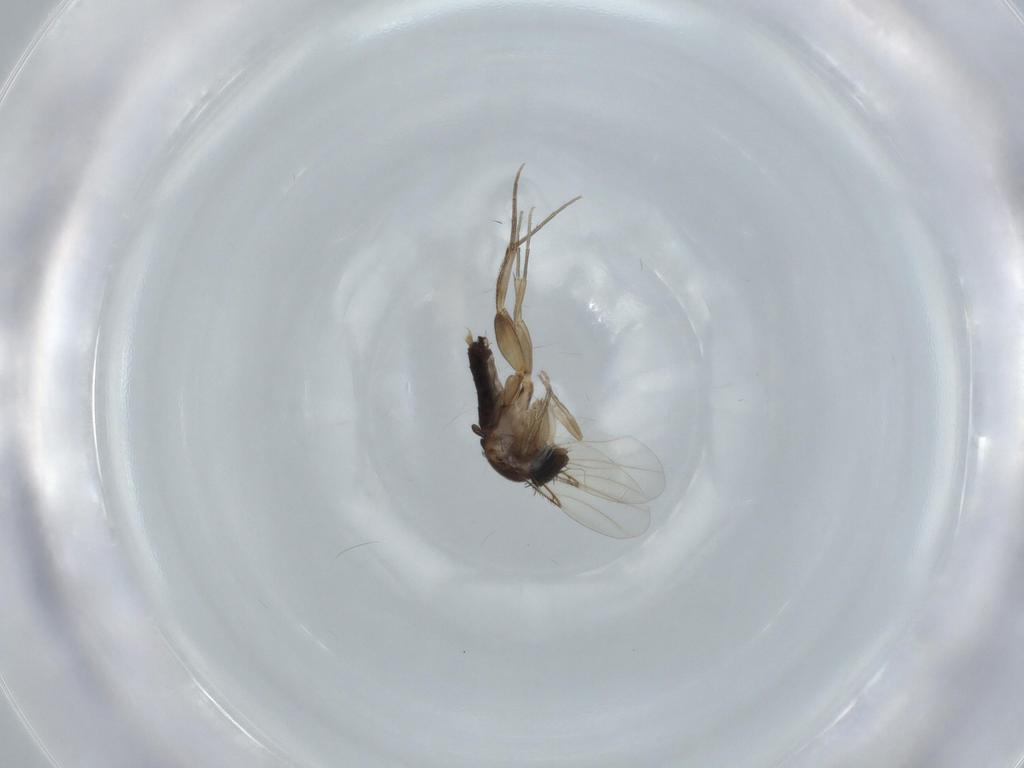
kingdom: Animalia
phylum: Arthropoda
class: Insecta
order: Diptera
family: Phoridae
